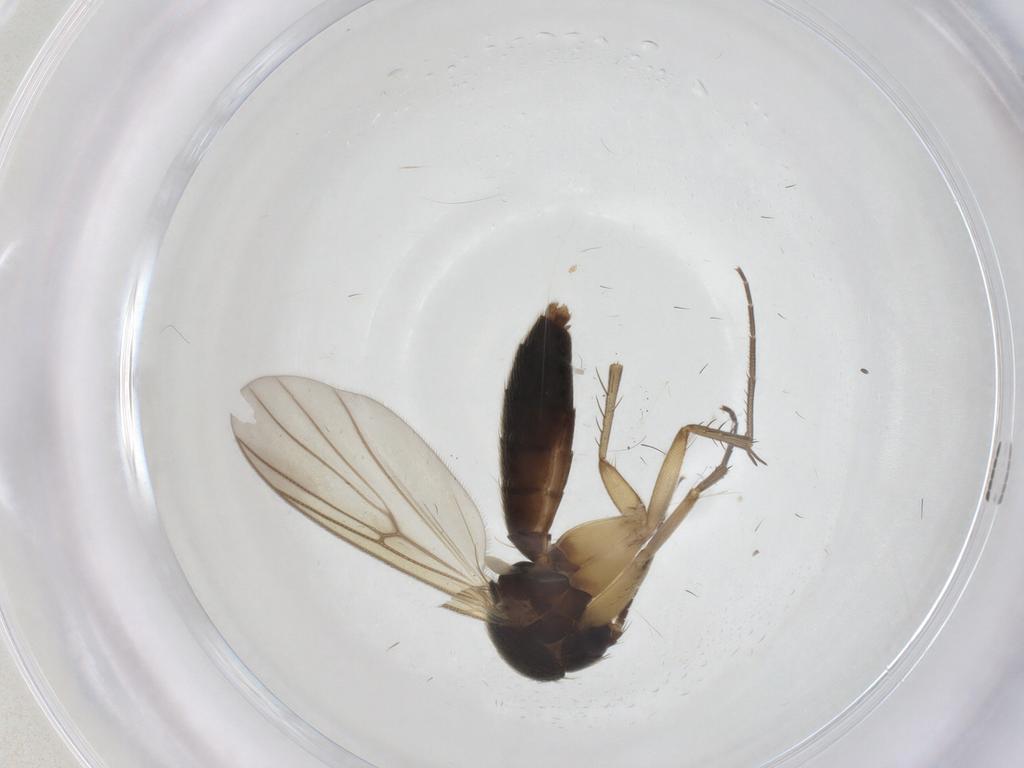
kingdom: Animalia
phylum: Arthropoda
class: Insecta
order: Diptera
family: Mycetophilidae
